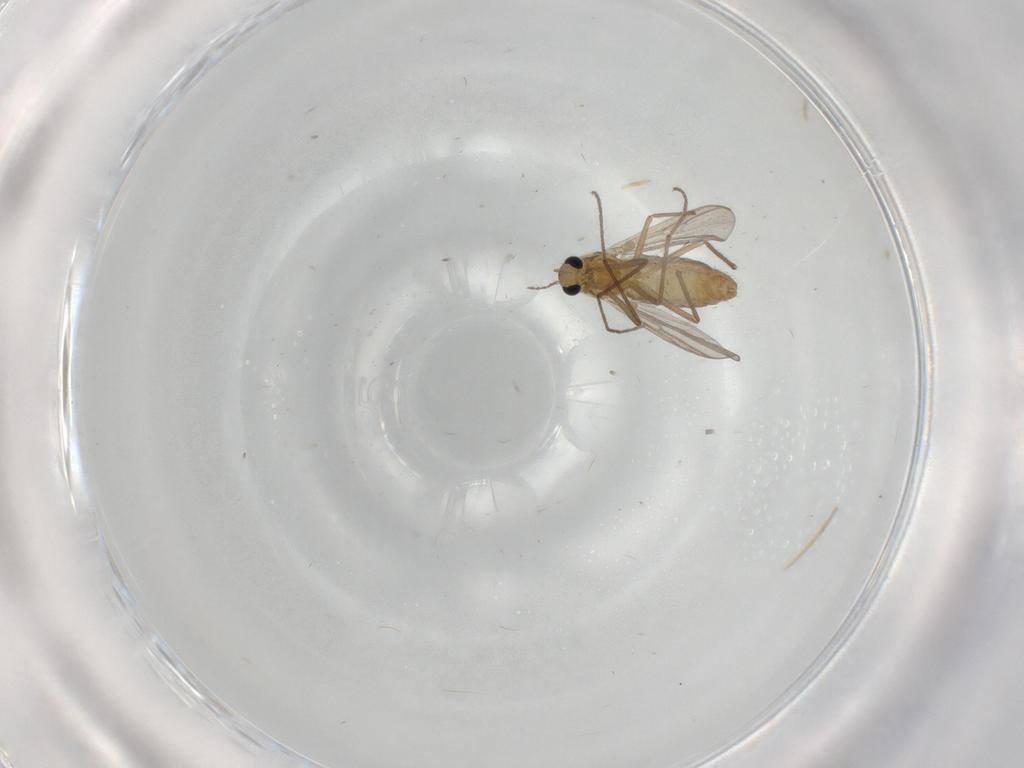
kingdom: Animalia
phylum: Arthropoda
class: Insecta
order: Diptera
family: Chironomidae
